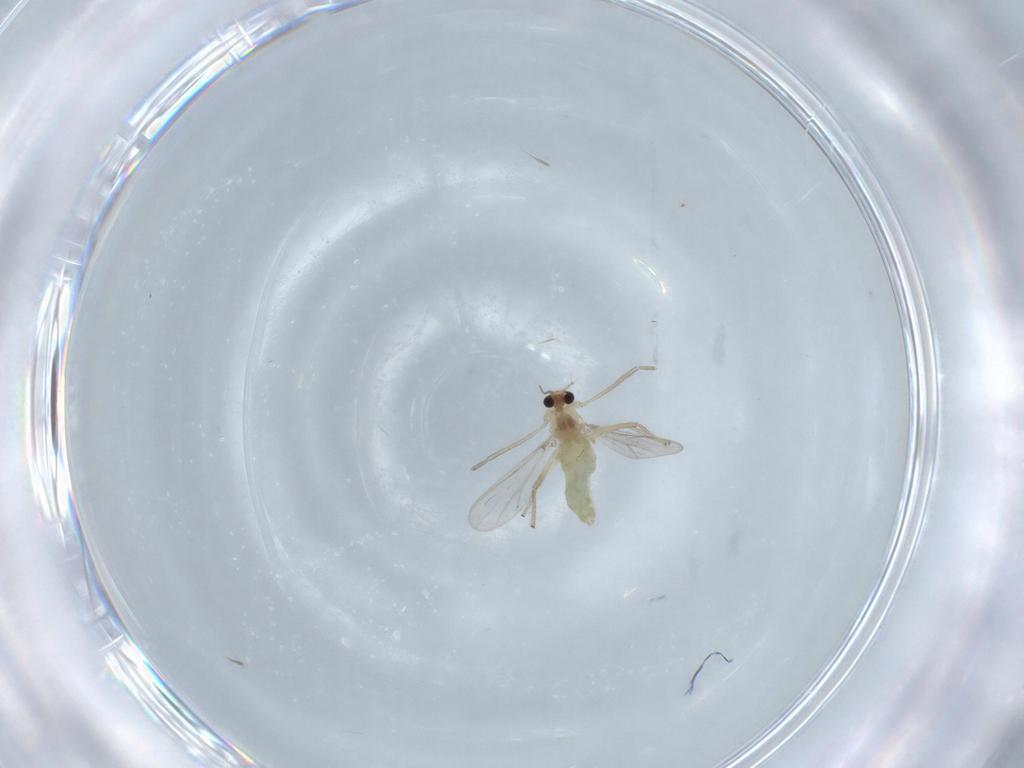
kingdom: Animalia
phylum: Arthropoda
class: Insecta
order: Diptera
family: Chironomidae
